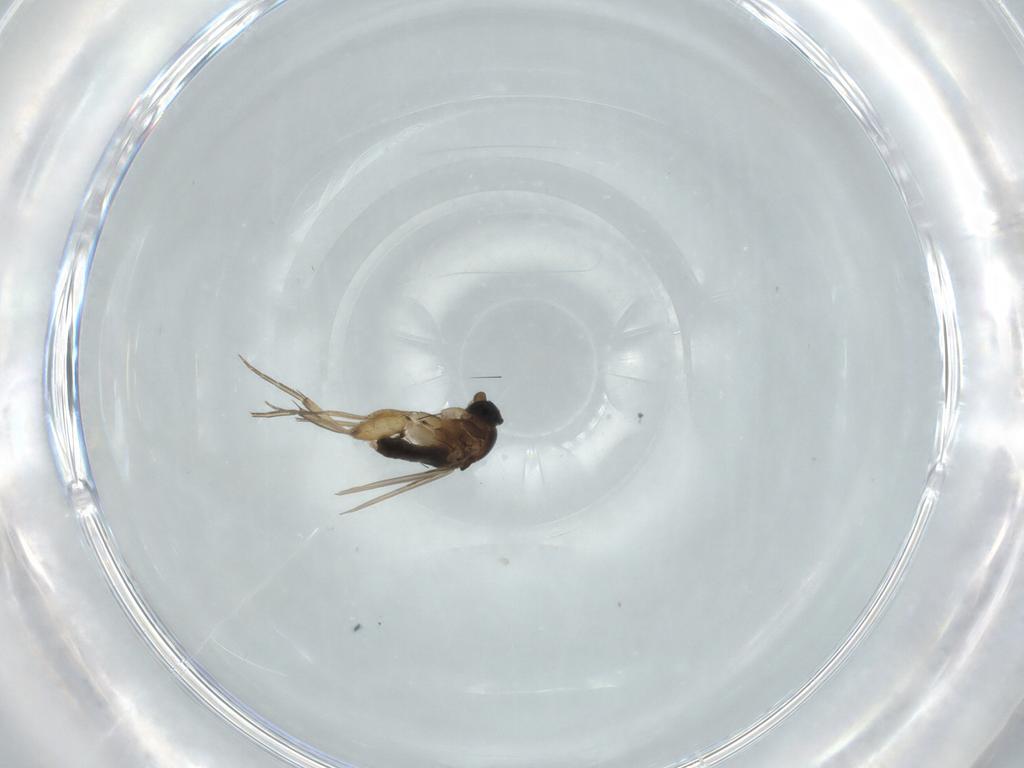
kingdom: Animalia
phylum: Arthropoda
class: Insecta
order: Diptera
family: Phoridae
